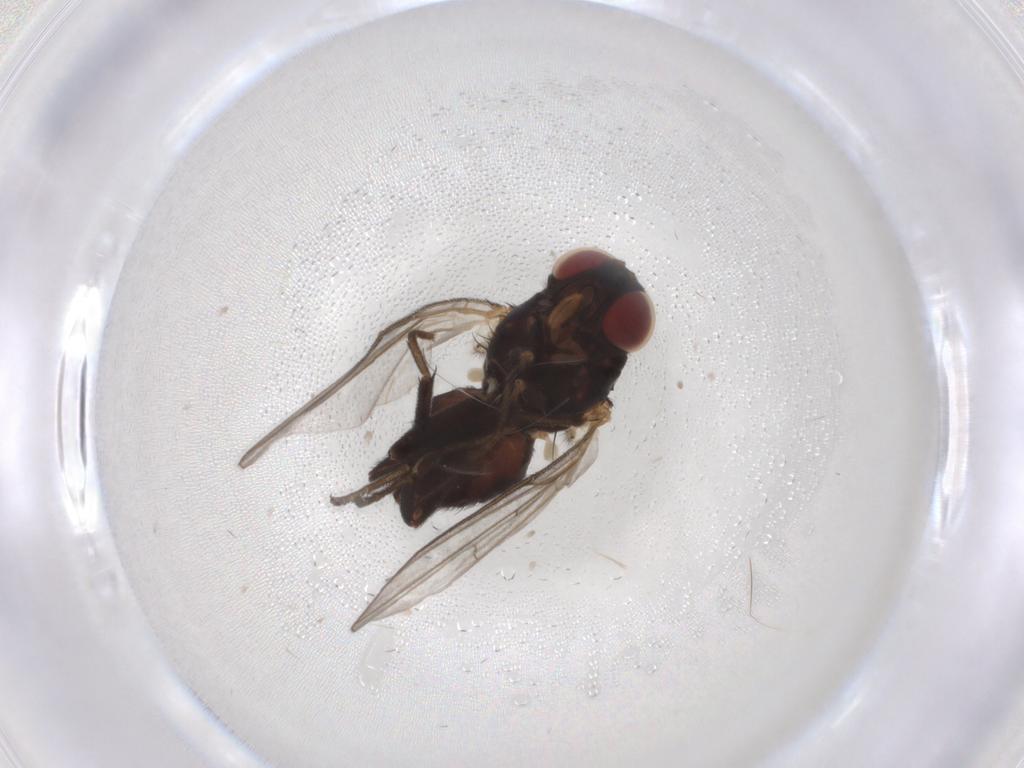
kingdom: Animalia
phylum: Arthropoda
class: Insecta
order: Diptera
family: Agromyzidae
